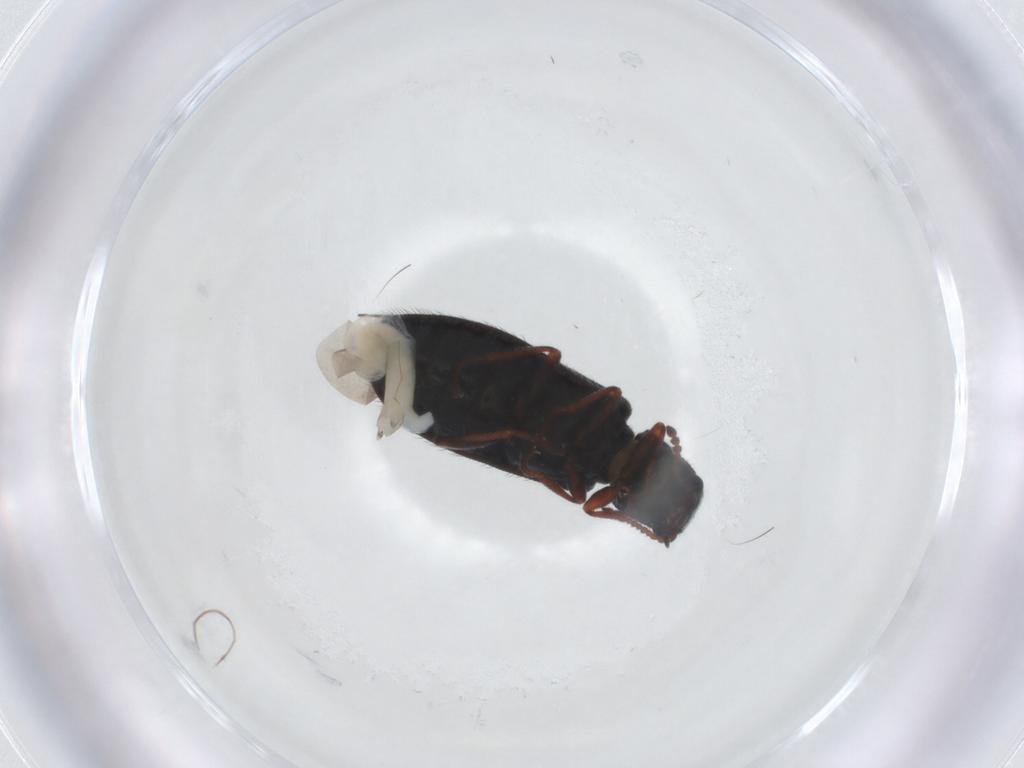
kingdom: Animalia
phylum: Arthropoda
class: Insecta
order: Coleoptera
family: Melyridae
